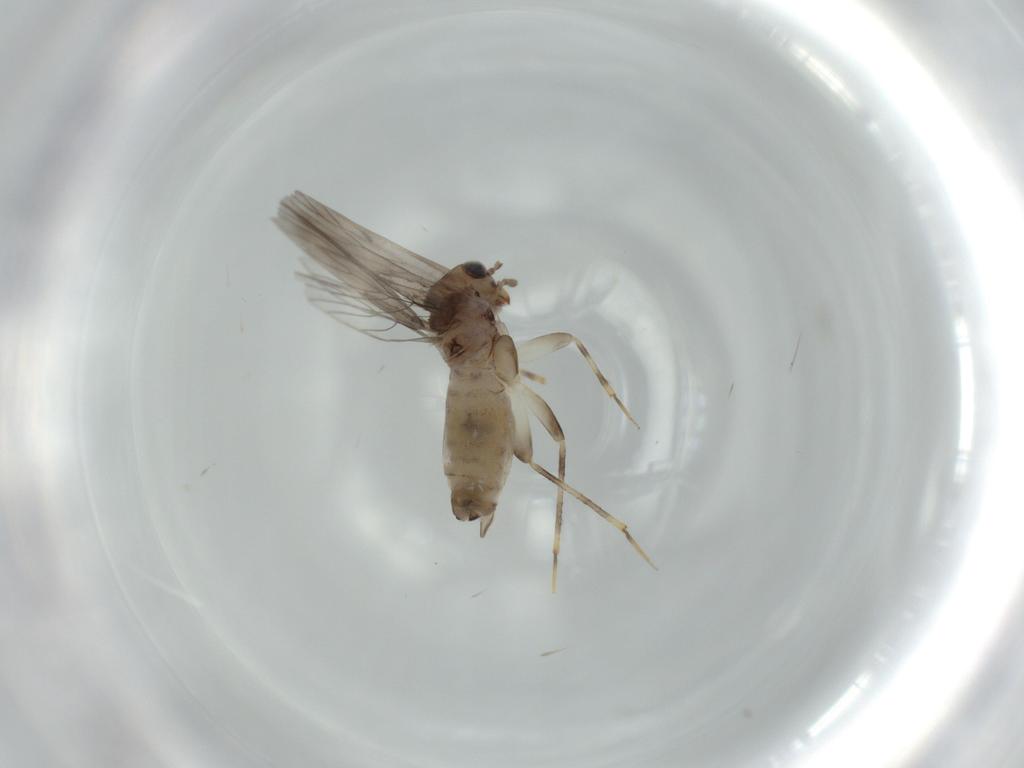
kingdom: Animalia
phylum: Arthropoda
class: Insecta
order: Psocodea
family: Lepidopsocidae
